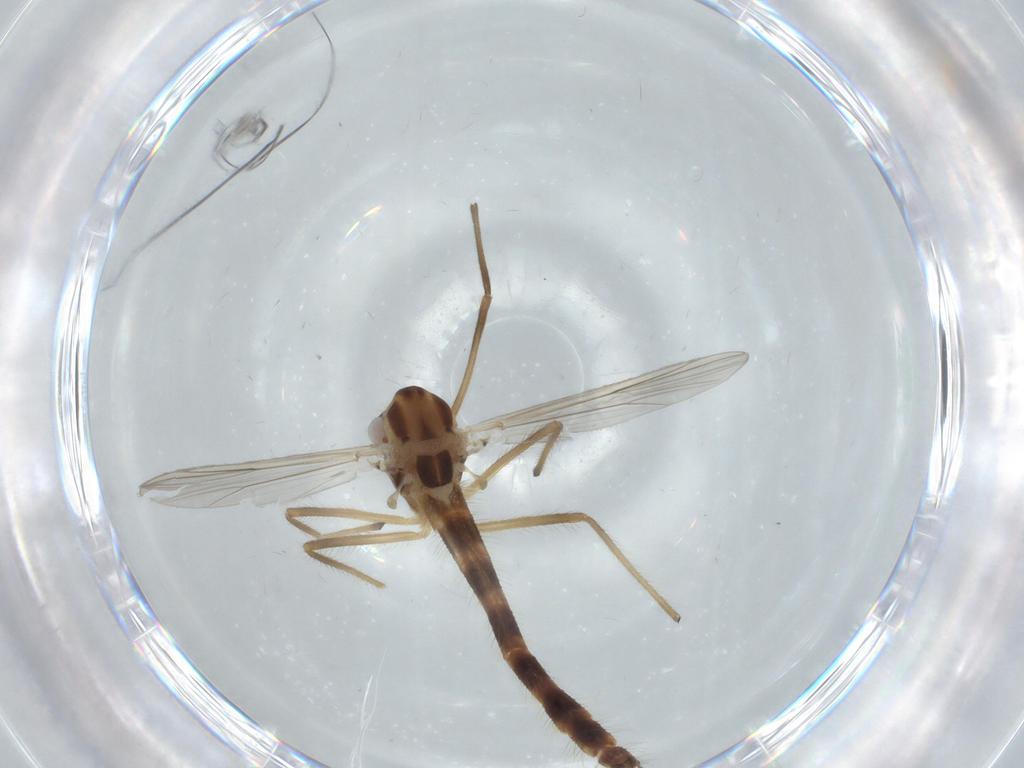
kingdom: Animalia
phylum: Arthropoda
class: Insecta
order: Diptera
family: Chironomidae
